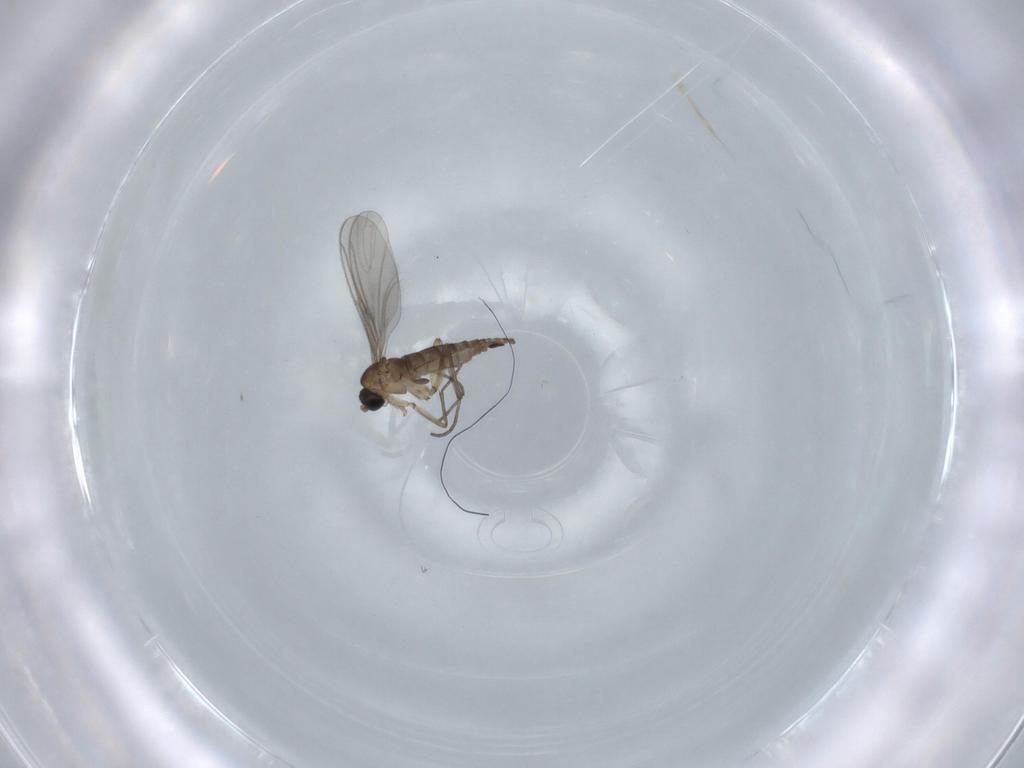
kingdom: Animalia
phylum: Arthropoda
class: Insecta
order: Diptera
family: Sciaridae
